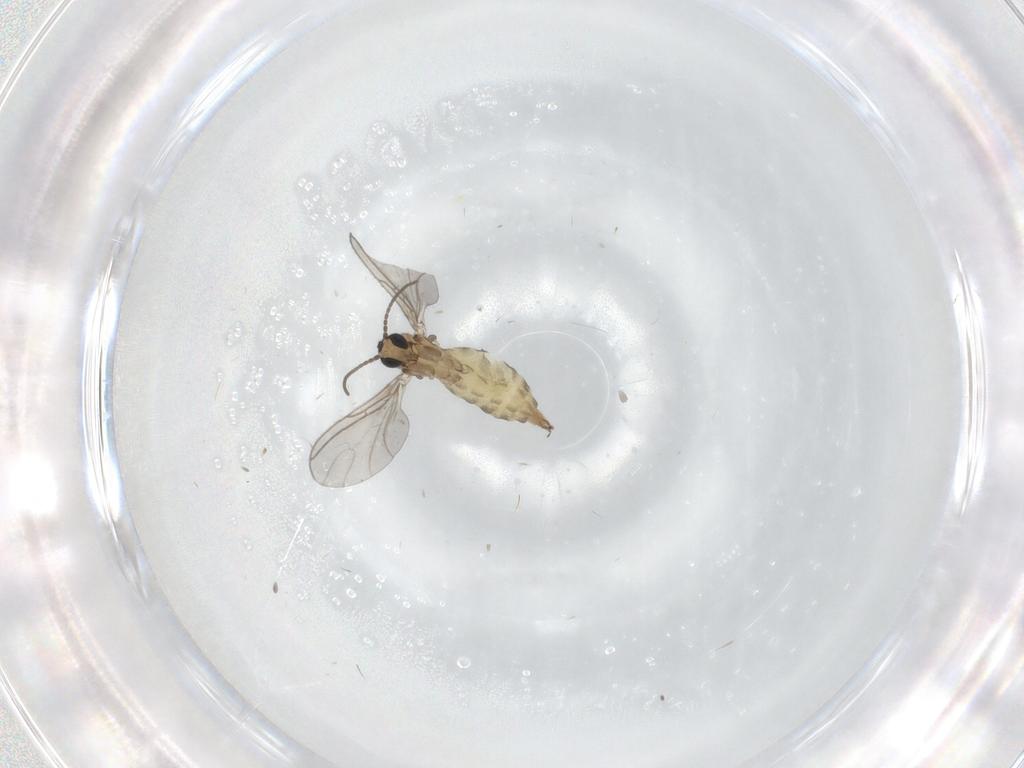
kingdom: Animalia
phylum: Arthropoda
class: Insecta
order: Diptera
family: Sciaridae
